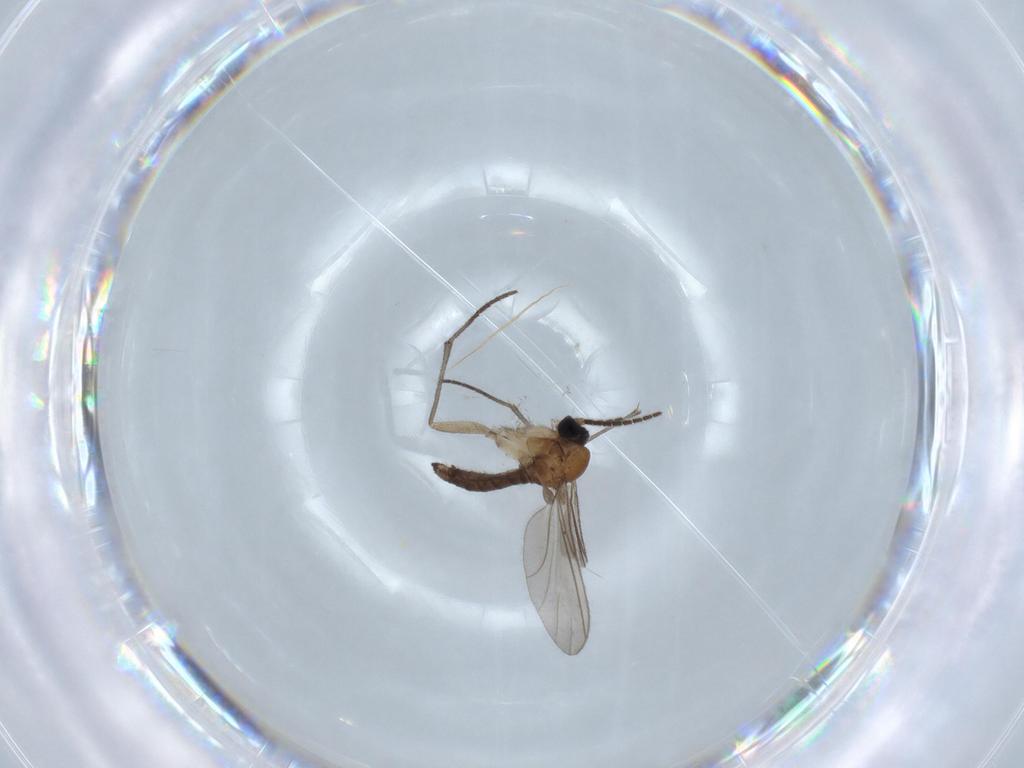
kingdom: Animalia
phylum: Arthropoda
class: Insecta
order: Diptera
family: Sciaridae
